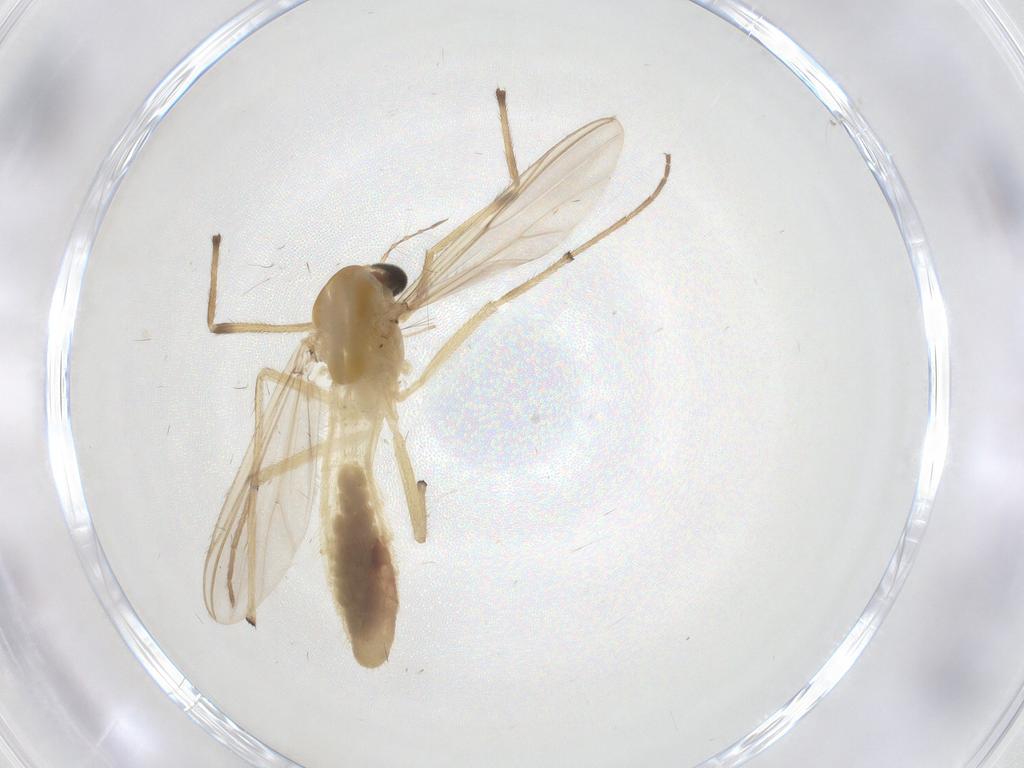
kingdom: Animalia
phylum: Arthropoda
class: Insecta
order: Diptera
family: Chironomidae
